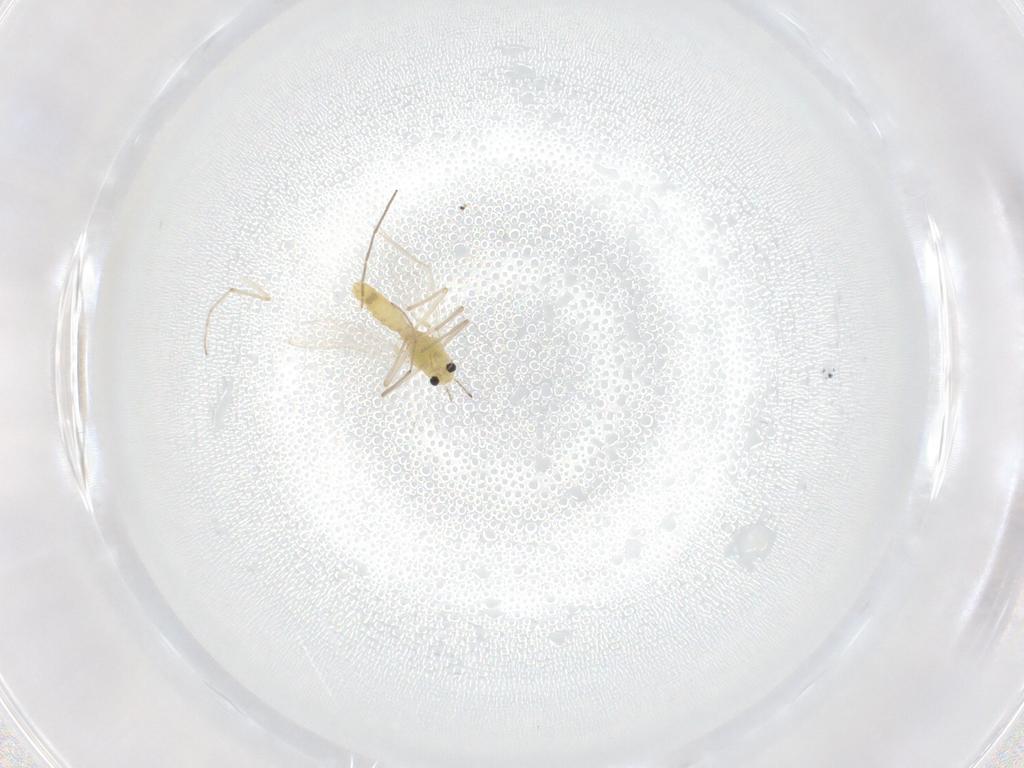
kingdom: Animalia
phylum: Arthropoda
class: Insecta
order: Diptera
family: Chironomidae
